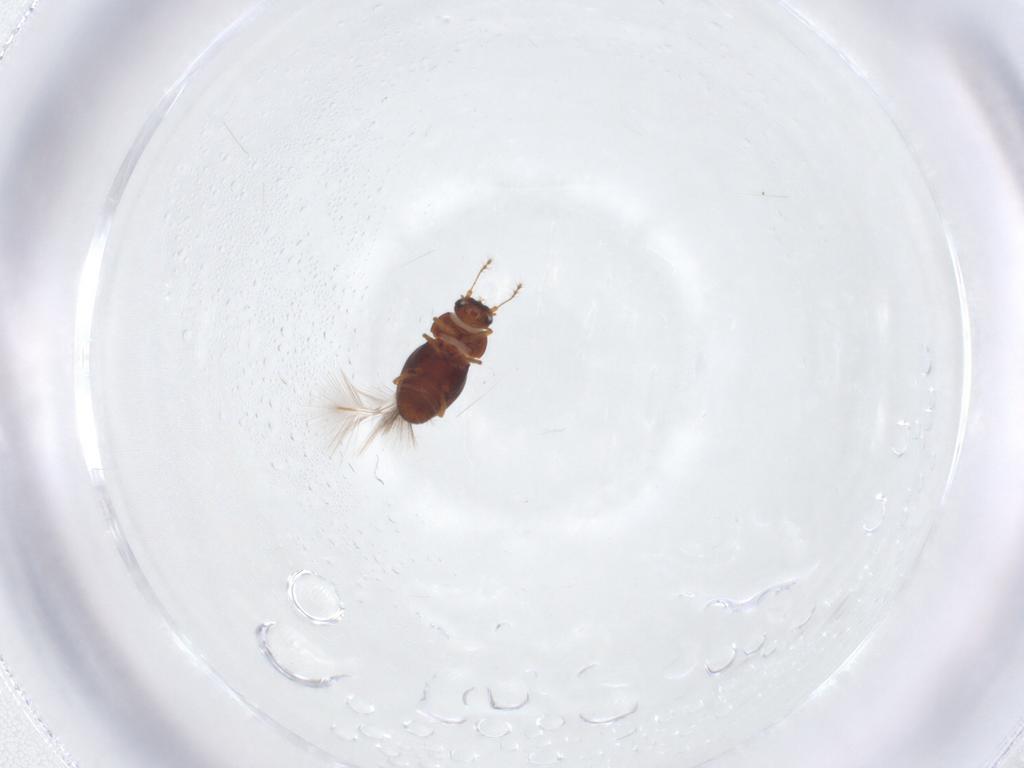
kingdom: Animalia
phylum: Arthropoda
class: Insecta
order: Coleoptera
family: Ptiliidae
